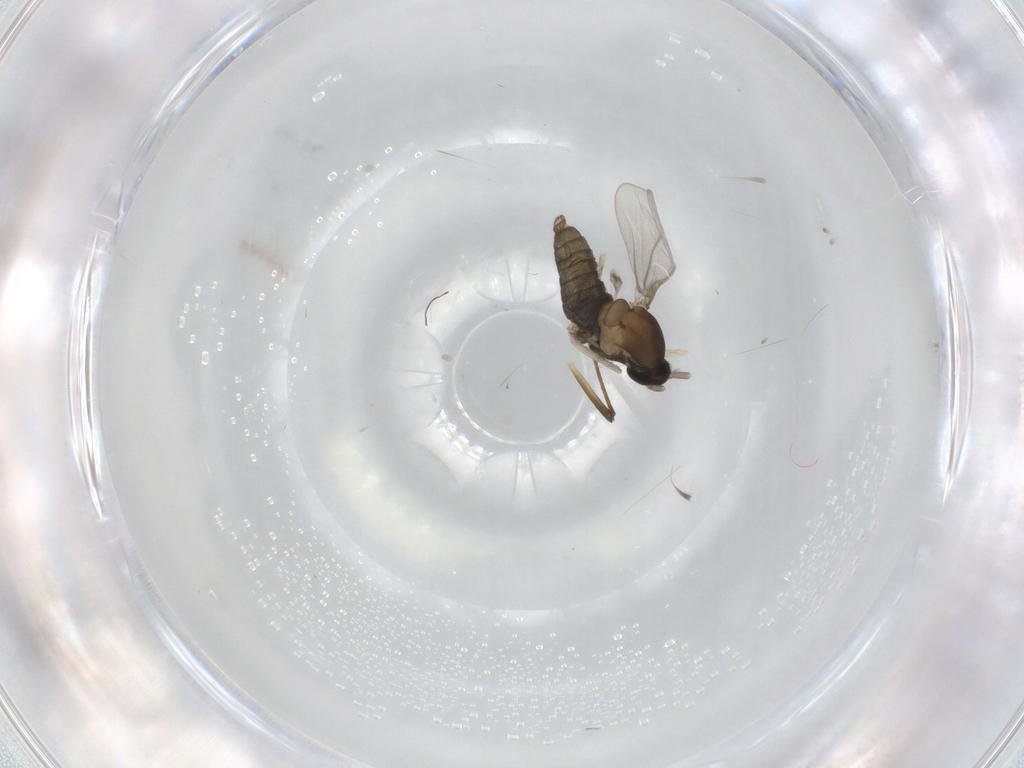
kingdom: Animalia
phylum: Arthropoda
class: Insecta
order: Diptera
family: Cecidomyiidae
